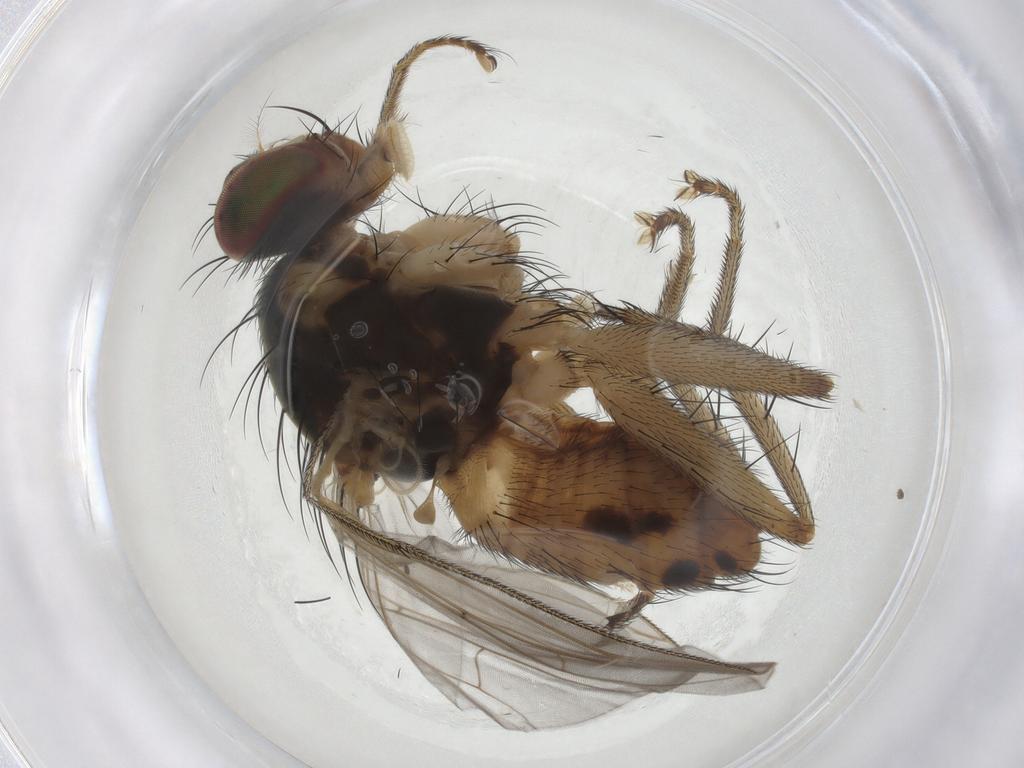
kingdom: Animalia
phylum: Arthropoda
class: Insecta
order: Diptera
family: Muscidae
